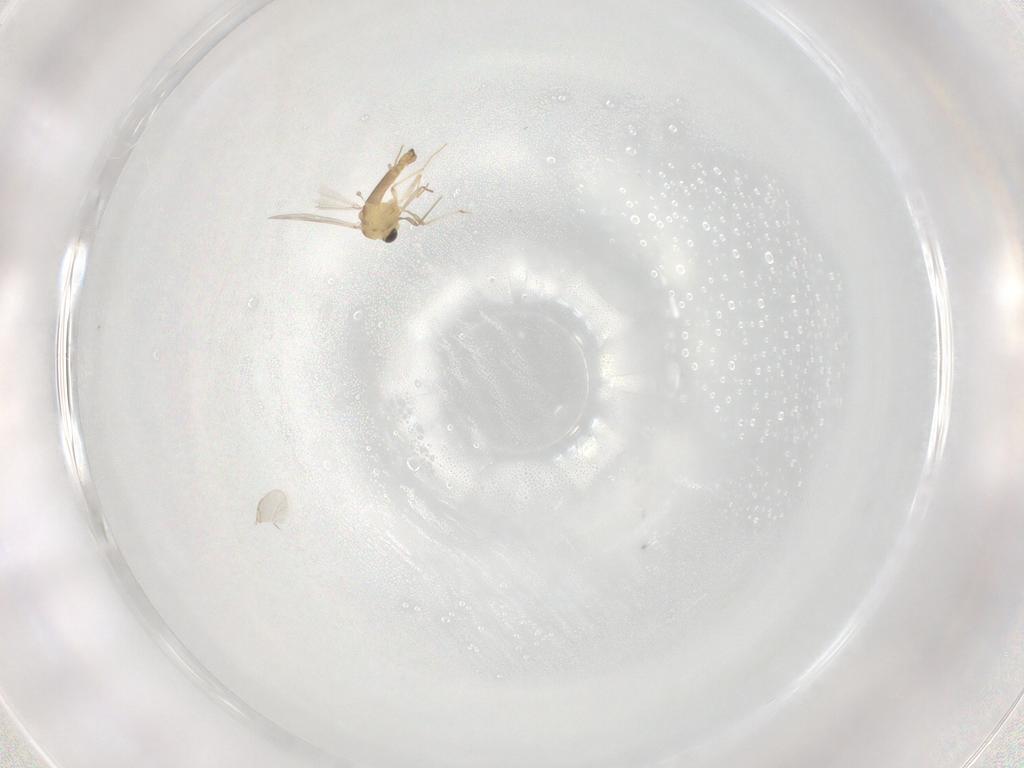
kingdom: Animalia
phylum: Arthropoda
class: Insecta
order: Diptera
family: Chironomidae
